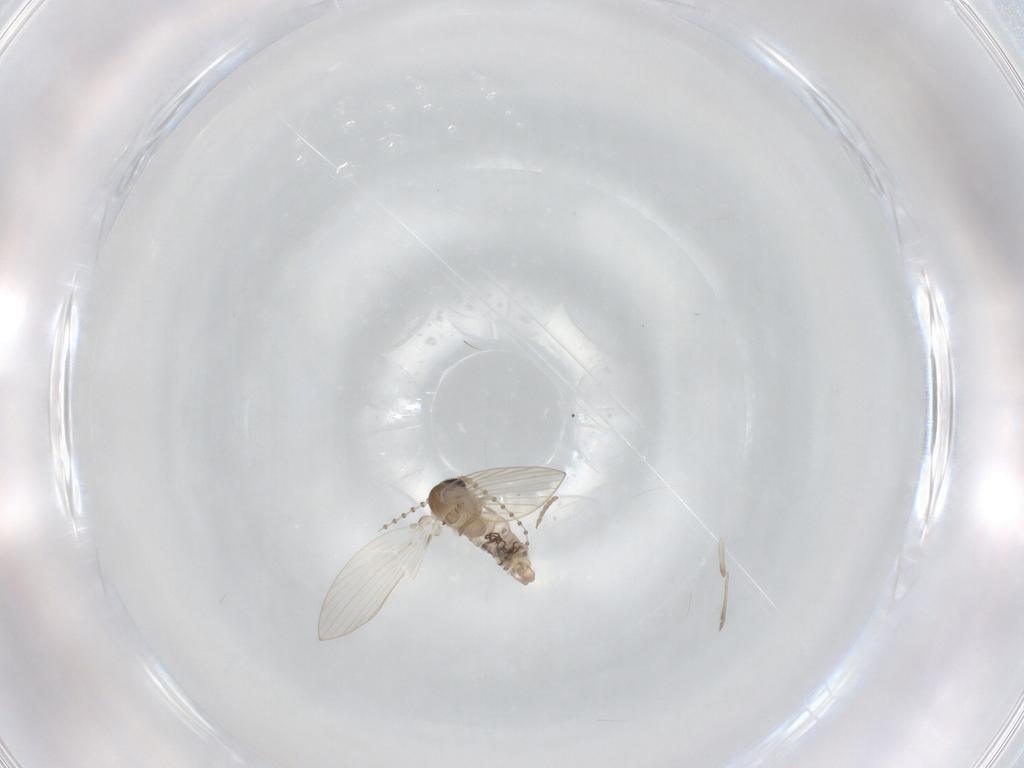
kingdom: Animalia
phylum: Arthropoda
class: Insecta
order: Diptera
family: Psychodidae
